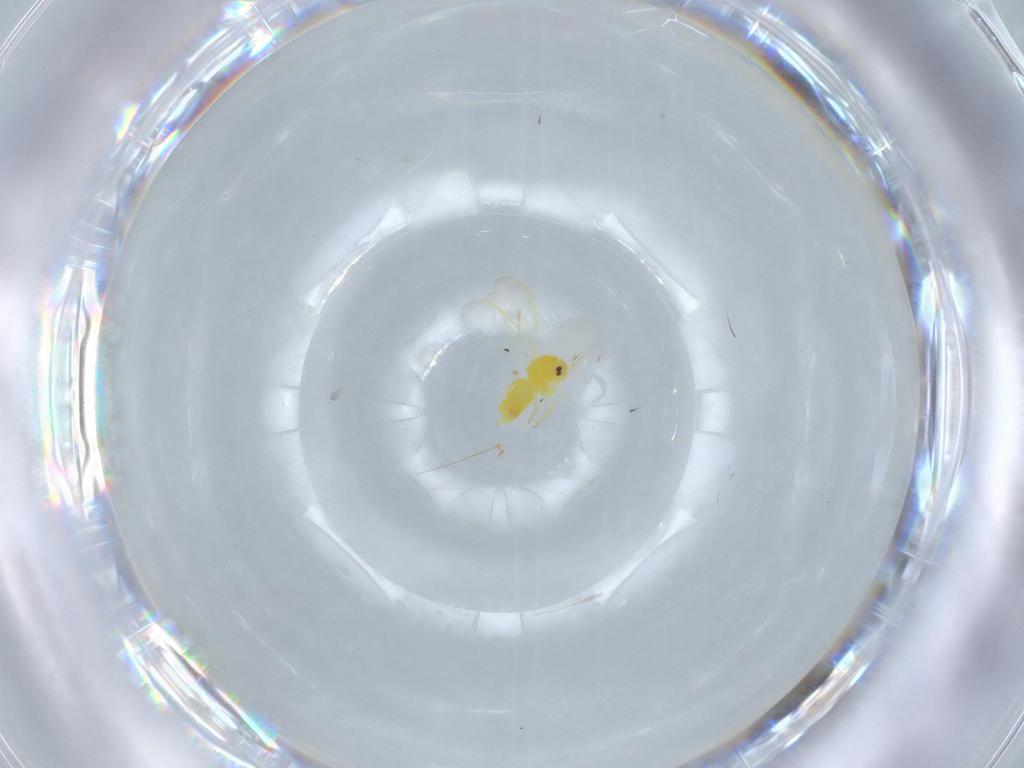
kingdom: Animalia
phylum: Arthropoda
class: Insecta
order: Hemiptera
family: Aleyrodidae
